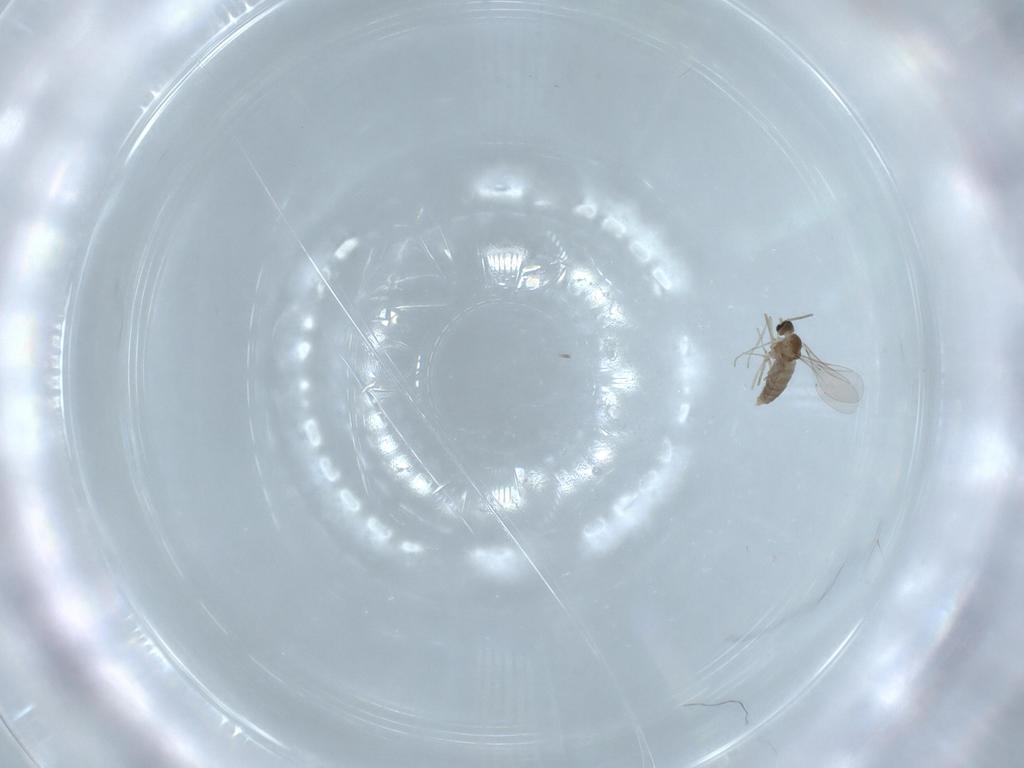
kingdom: Animalia
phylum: Arthropoda
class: Insecta
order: Diptera
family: Cecidomyiidae
